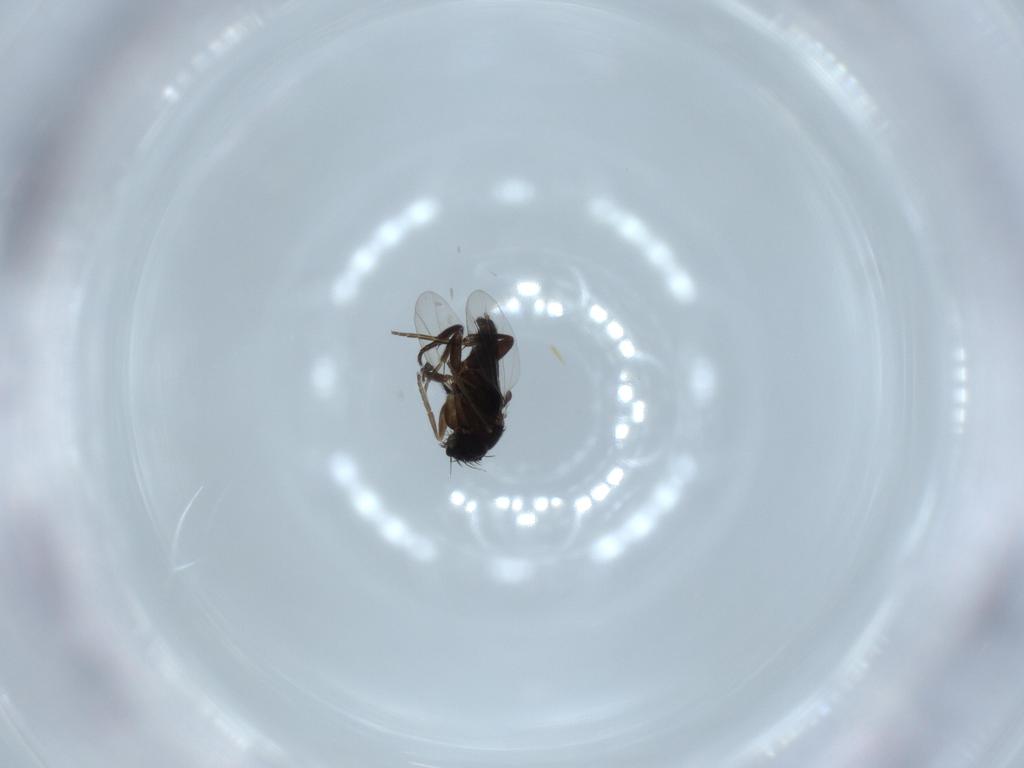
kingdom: Animalia
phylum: Arthropoda
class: Insecta
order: Diptera
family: Phoridae
